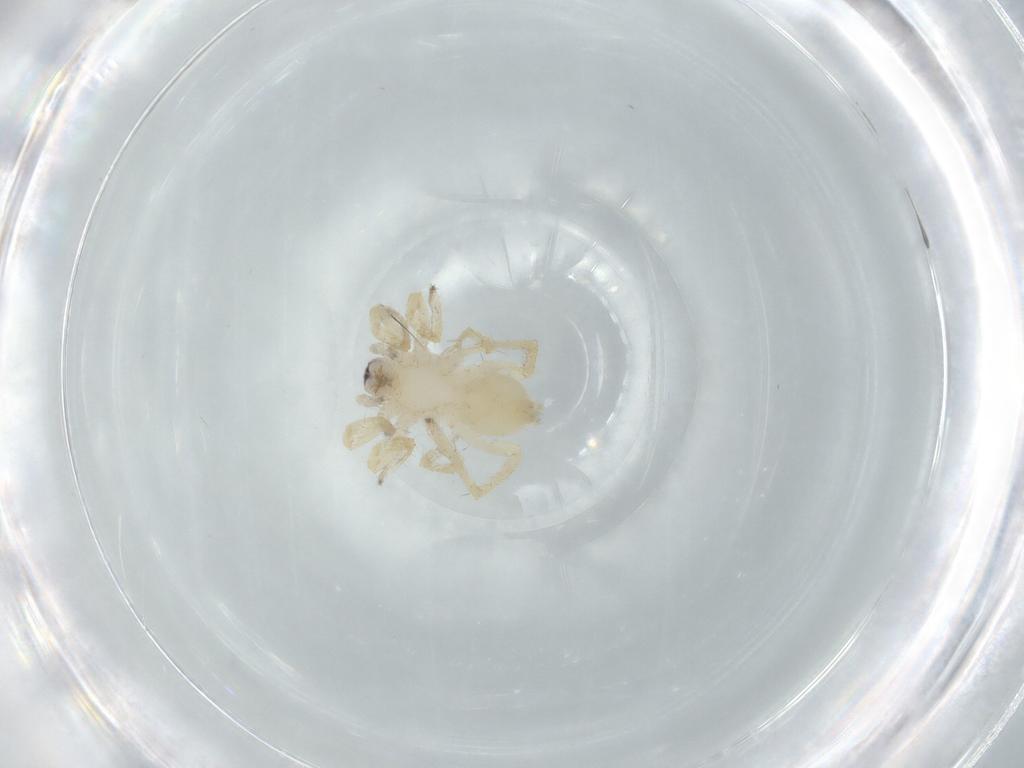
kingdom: Animalia
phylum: Arthropoda
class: Arachnida
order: Araneae
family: Clubionidae
